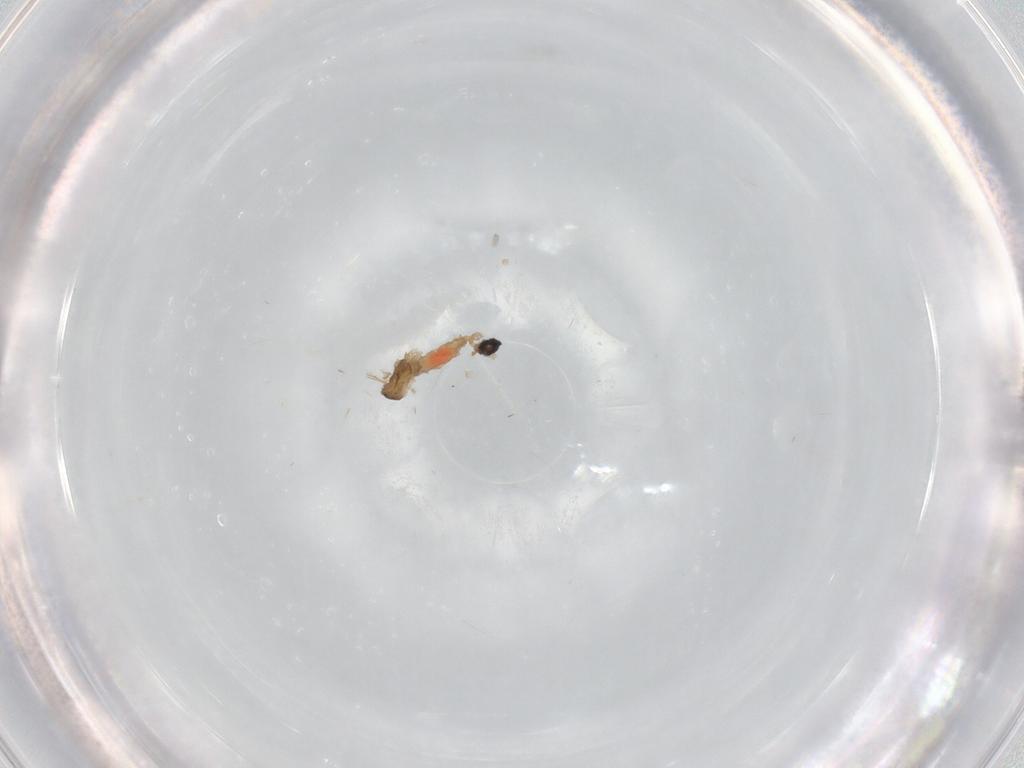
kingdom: Animalia
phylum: Arthropoda
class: Insecta
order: Diptera
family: Cecidomyiidae
